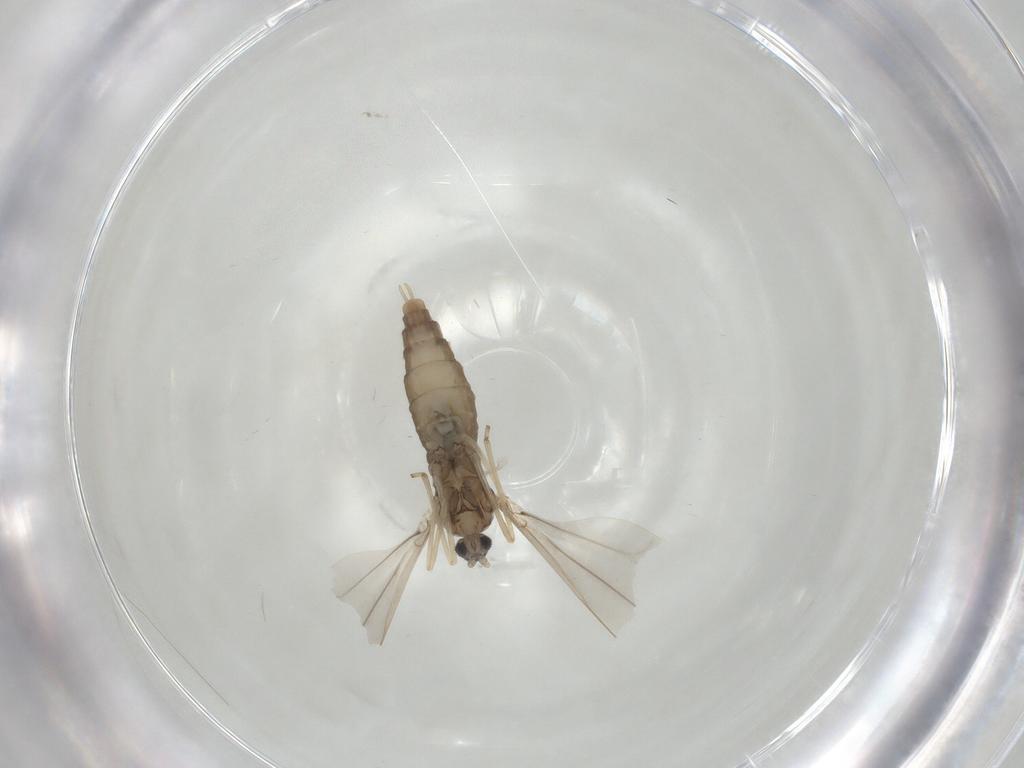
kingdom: Animalia
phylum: Arthropoda
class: Insecta
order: Diptera
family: Cecidomyiidae
